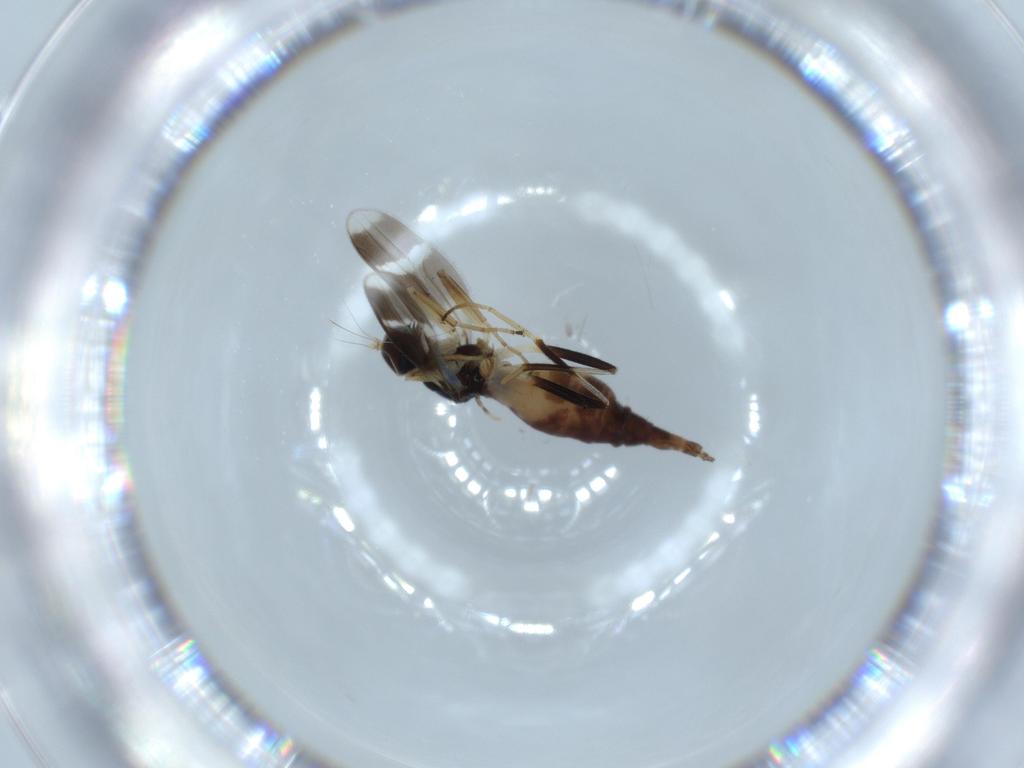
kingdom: Animalia
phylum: Arthropoda
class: Insecta
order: Diptera
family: Hybotidae
